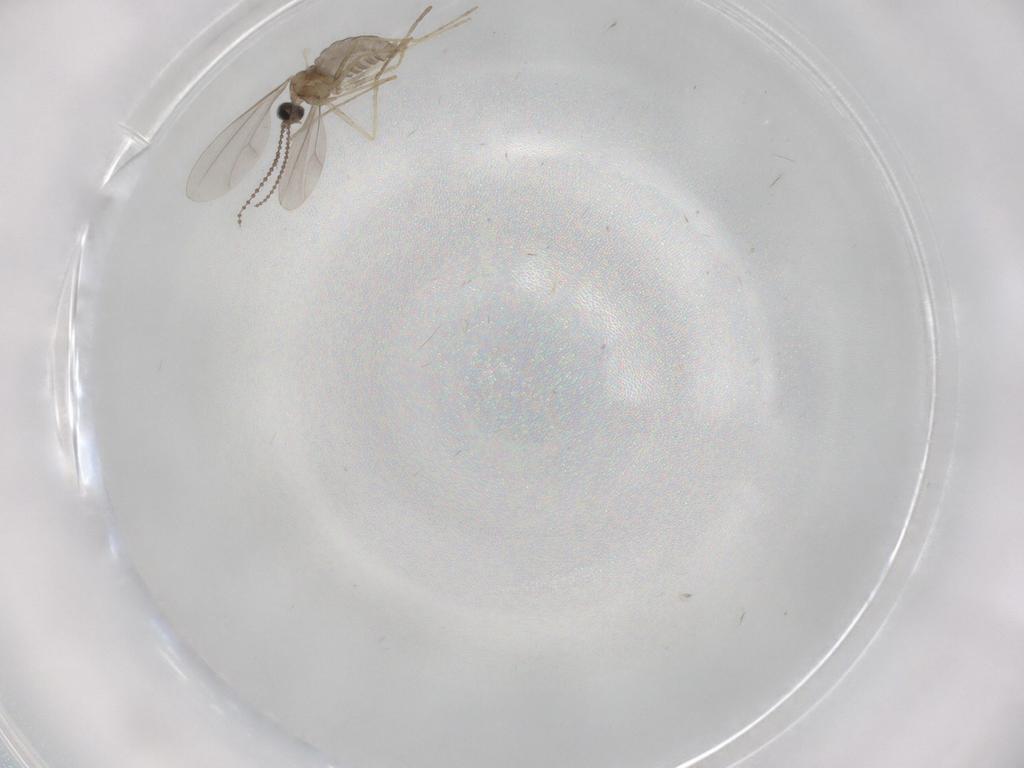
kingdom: Animalia
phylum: Arthropoda
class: Insecta
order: Diptera
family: Cecidomyiidae
